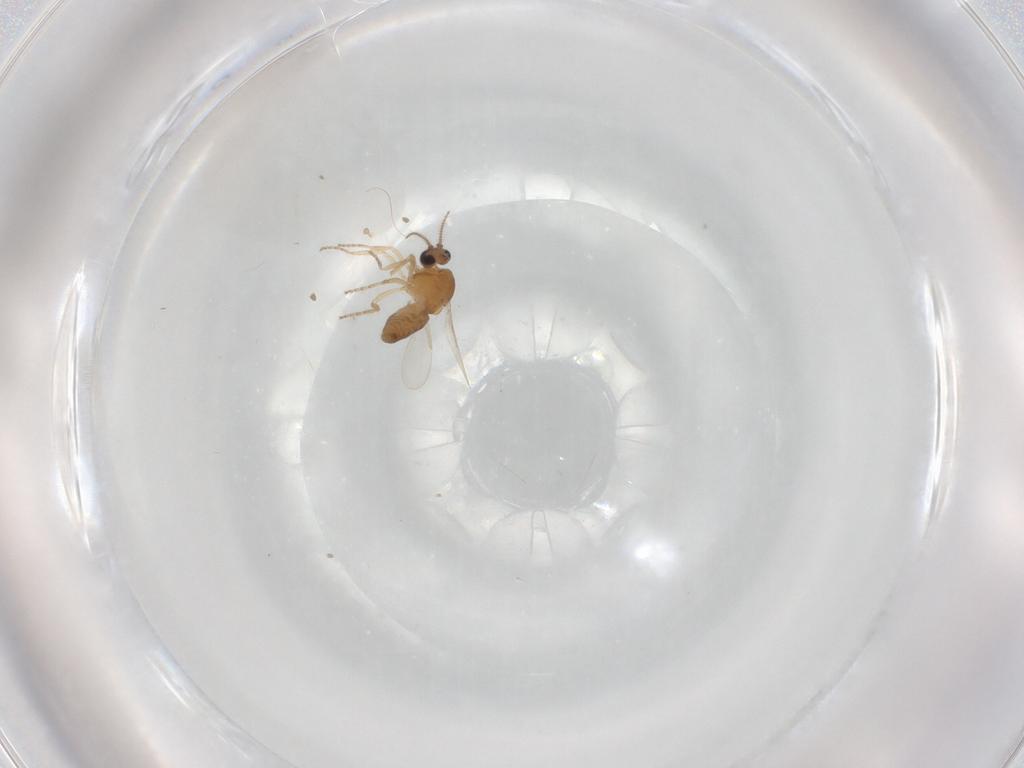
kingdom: Animalia
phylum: Arthropoda
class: Insecta
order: Diptera
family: Ceratopogonidae
